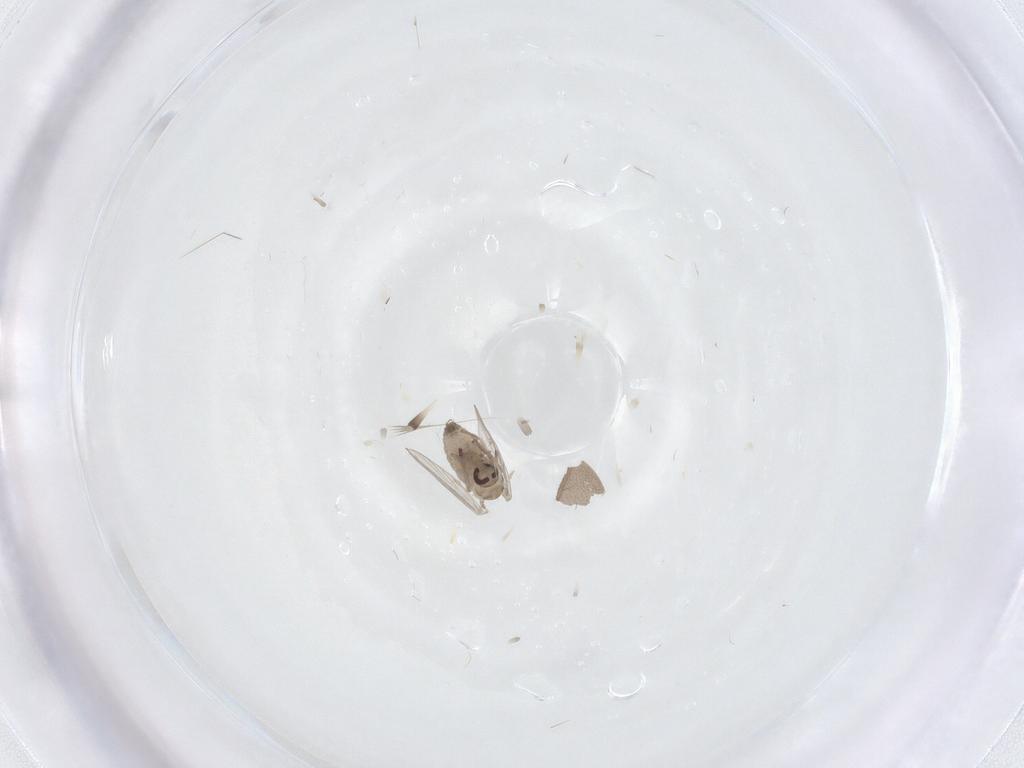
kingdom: Animalia
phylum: Arthropoda
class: Insecta
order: Diptera
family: Psychodidae
